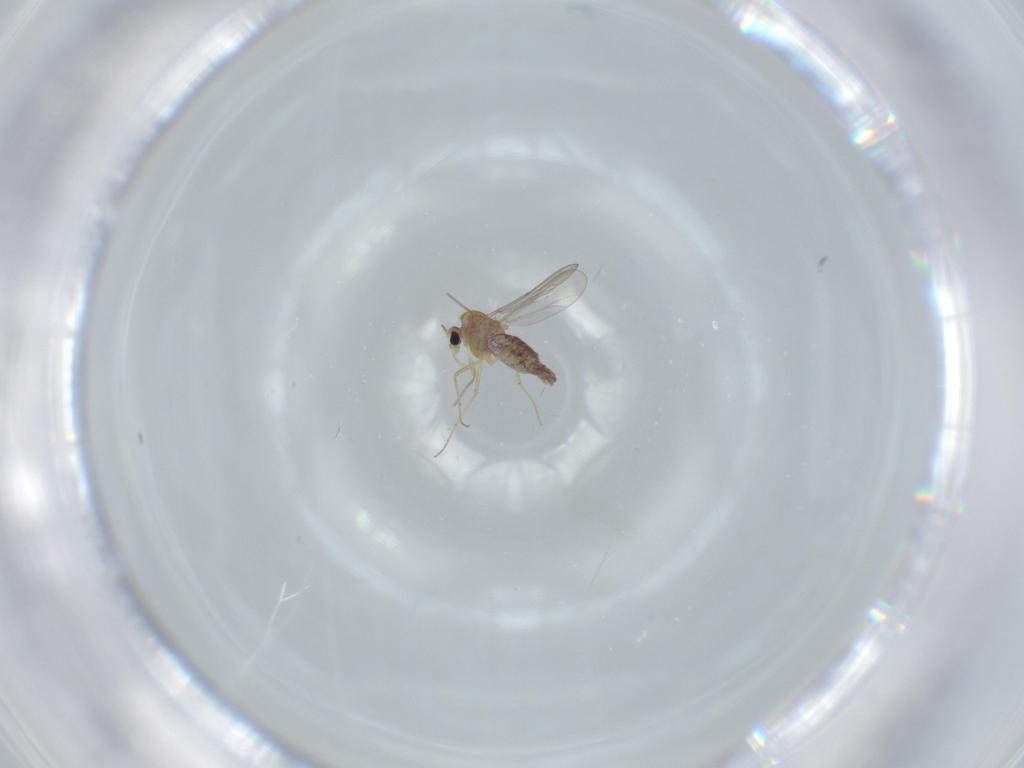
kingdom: Animalia
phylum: Arthropoda
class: Insecta
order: Diptera
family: Chironomidae
